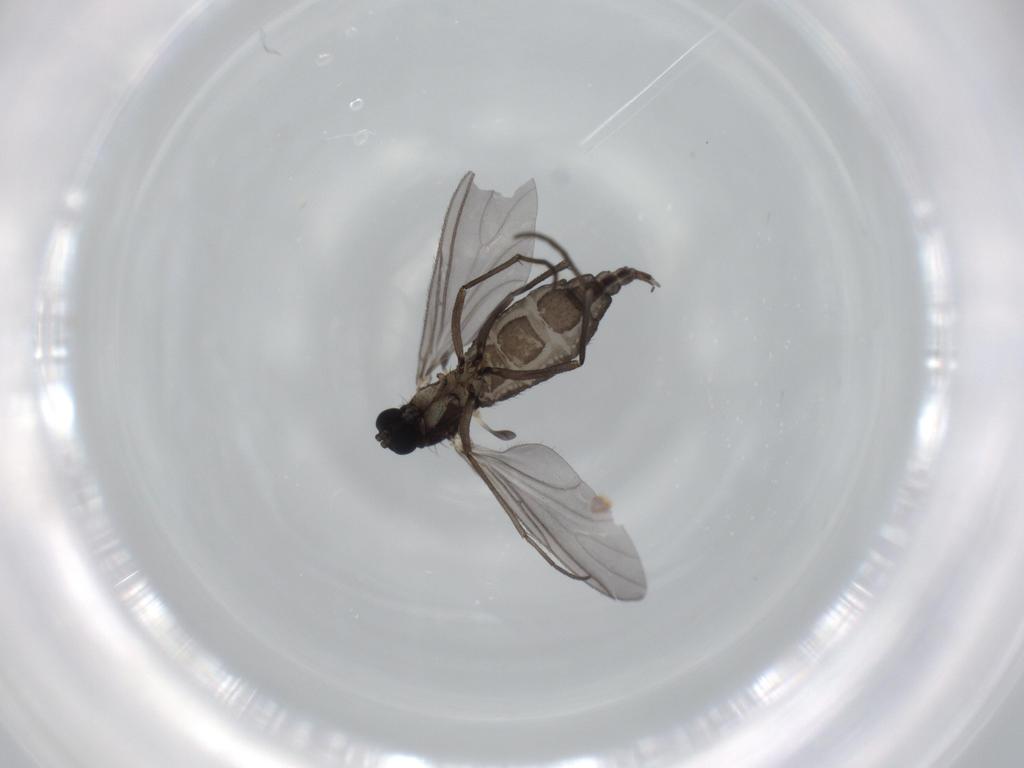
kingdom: Animalia
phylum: Arthropoda
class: Insecta
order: Diptera
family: Sciaridae
